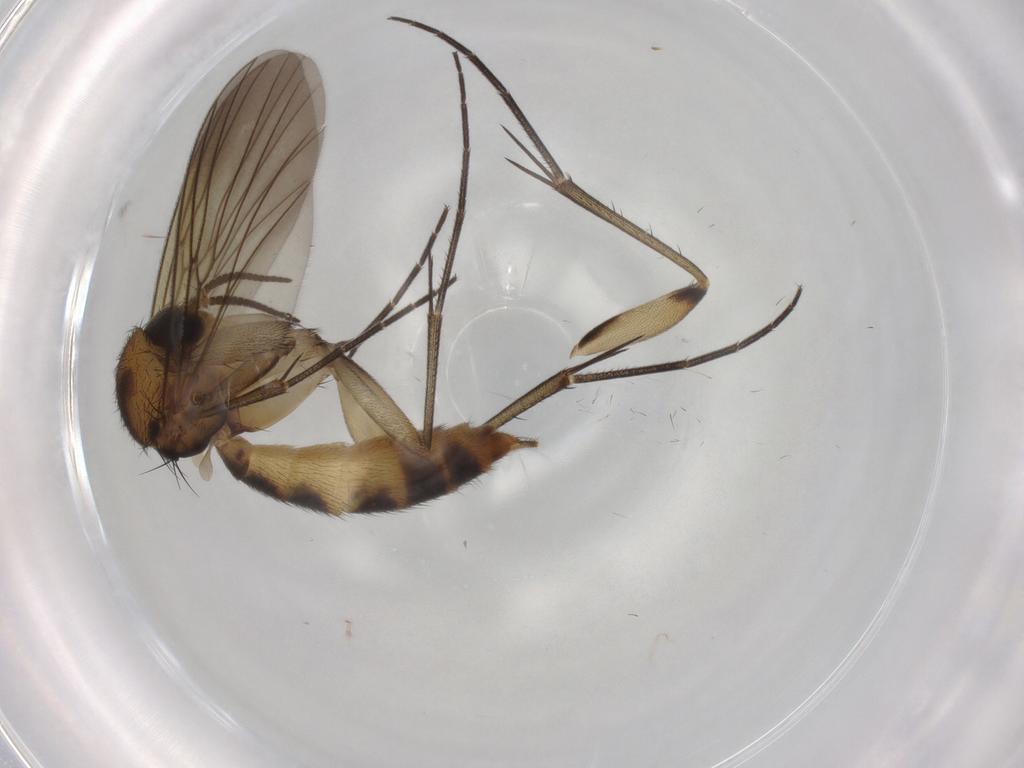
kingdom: Animalia
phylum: Arthropoda
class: Insecta
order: Diptera
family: Mycetophilidae
